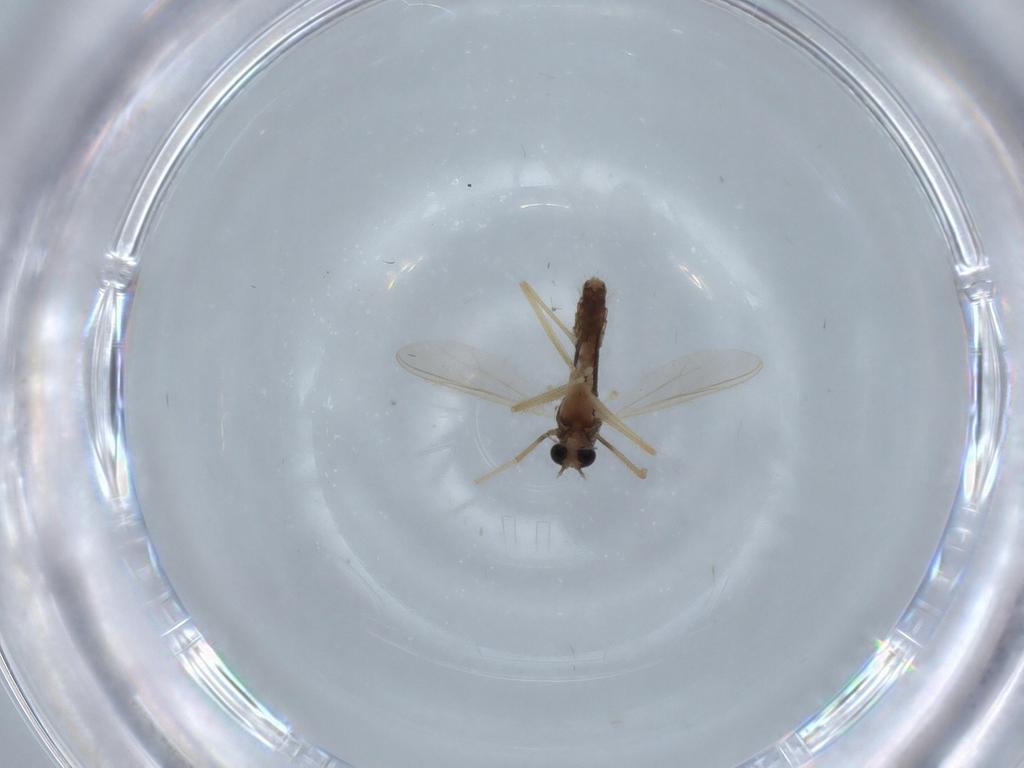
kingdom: Animalia
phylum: Arthropoda
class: Insecta
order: Diptera
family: Chironomidae
